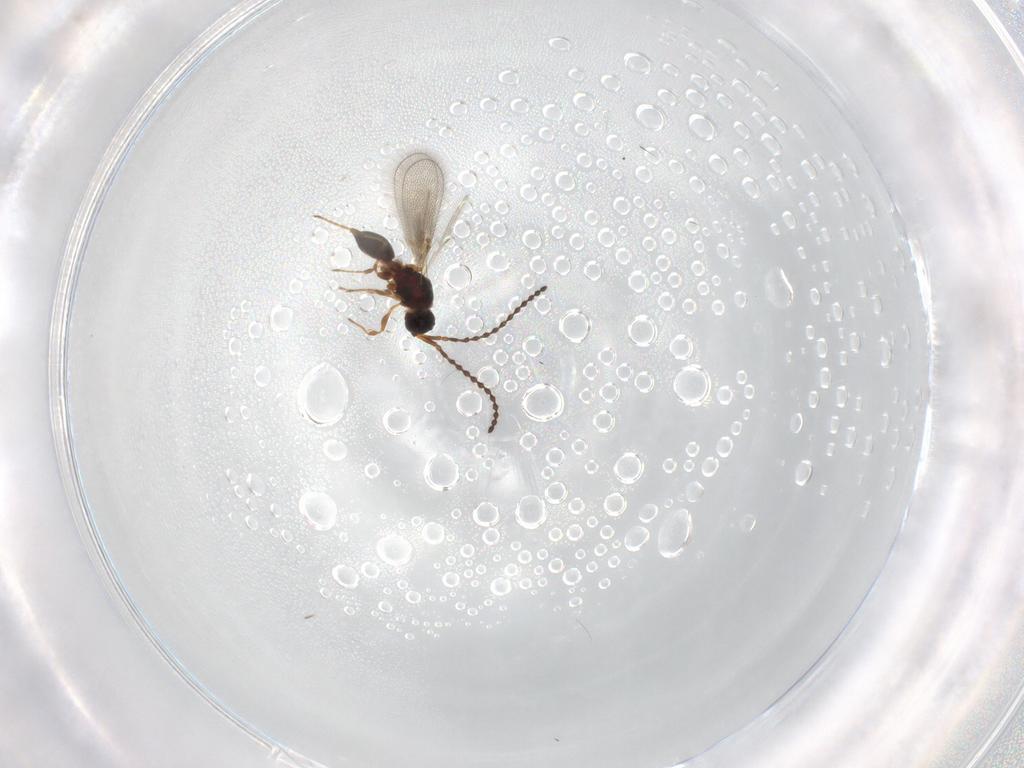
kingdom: Animalia
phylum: Arthropoda
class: Insecta
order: Hymenoptera
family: Diapriidae
